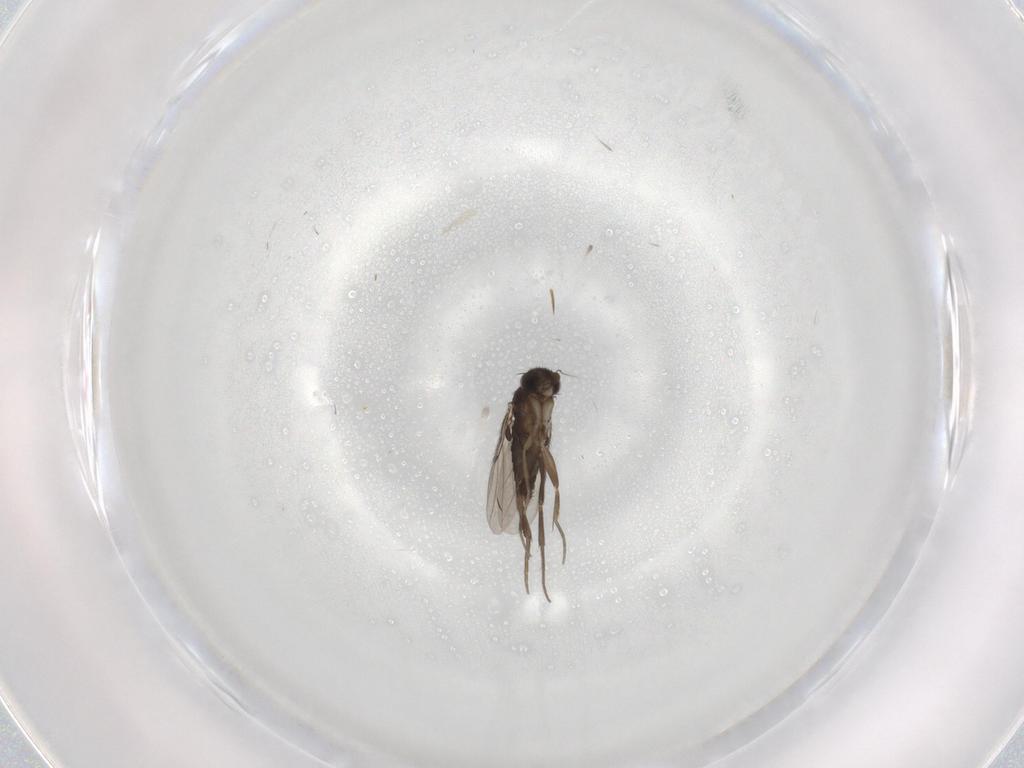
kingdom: Animalia
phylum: Arthropoda
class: Insecta
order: Diptera
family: Phoridae
